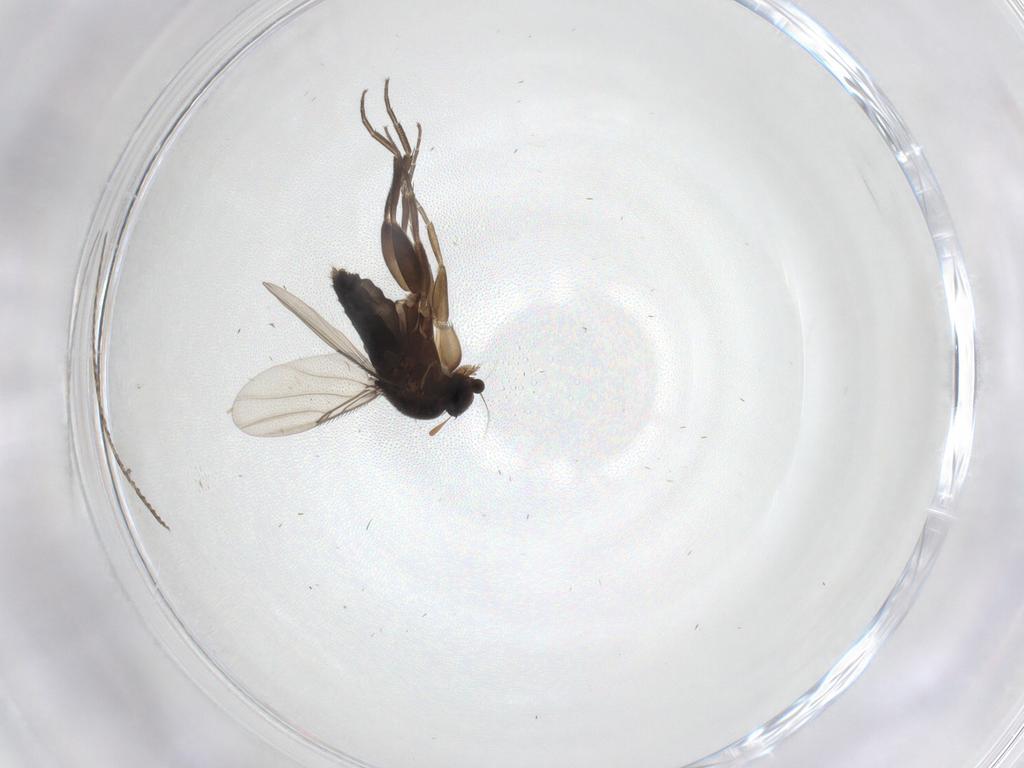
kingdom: Animalia
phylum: Arthropoda
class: Insecta
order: Diptera
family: Phoridae
